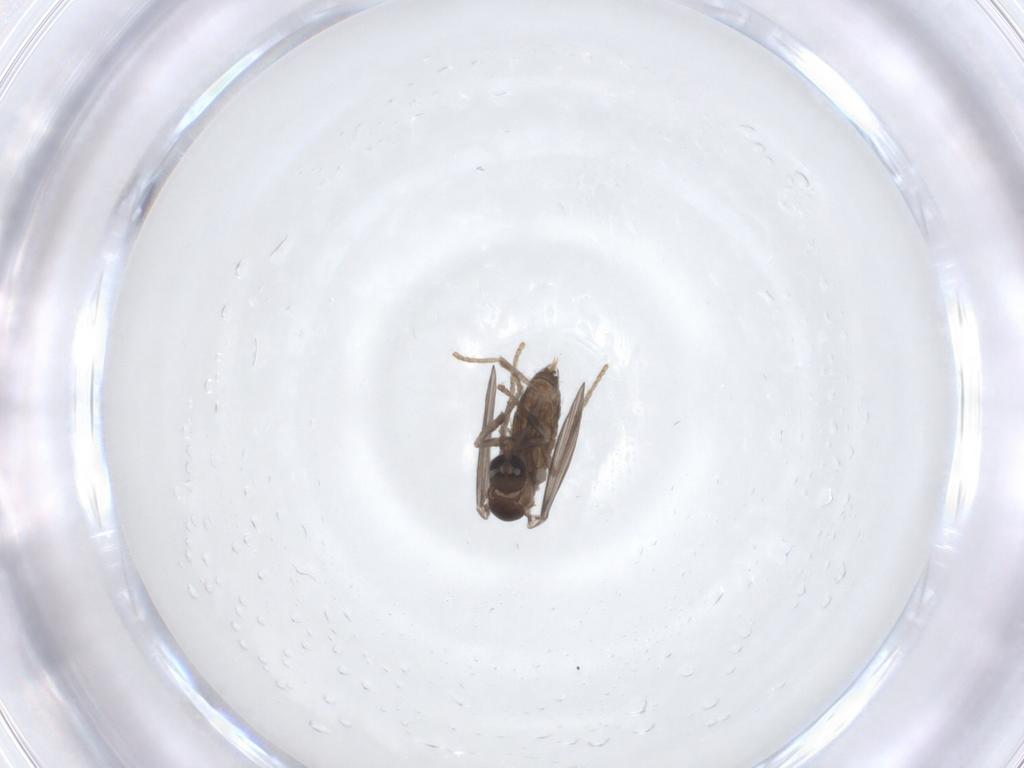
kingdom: Animalia
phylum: Arthropoda
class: Insecta
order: Diptera
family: Psychodidae
